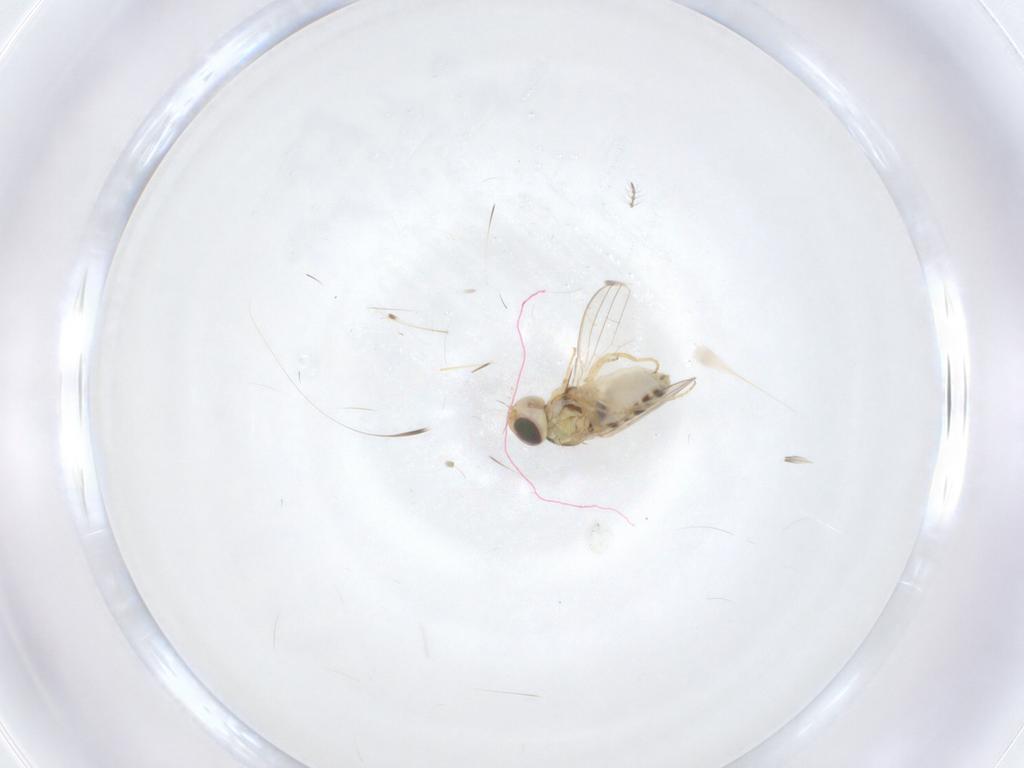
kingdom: Animalia
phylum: Arthropoda
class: Insecta
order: Diptera
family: Chyromyidae
